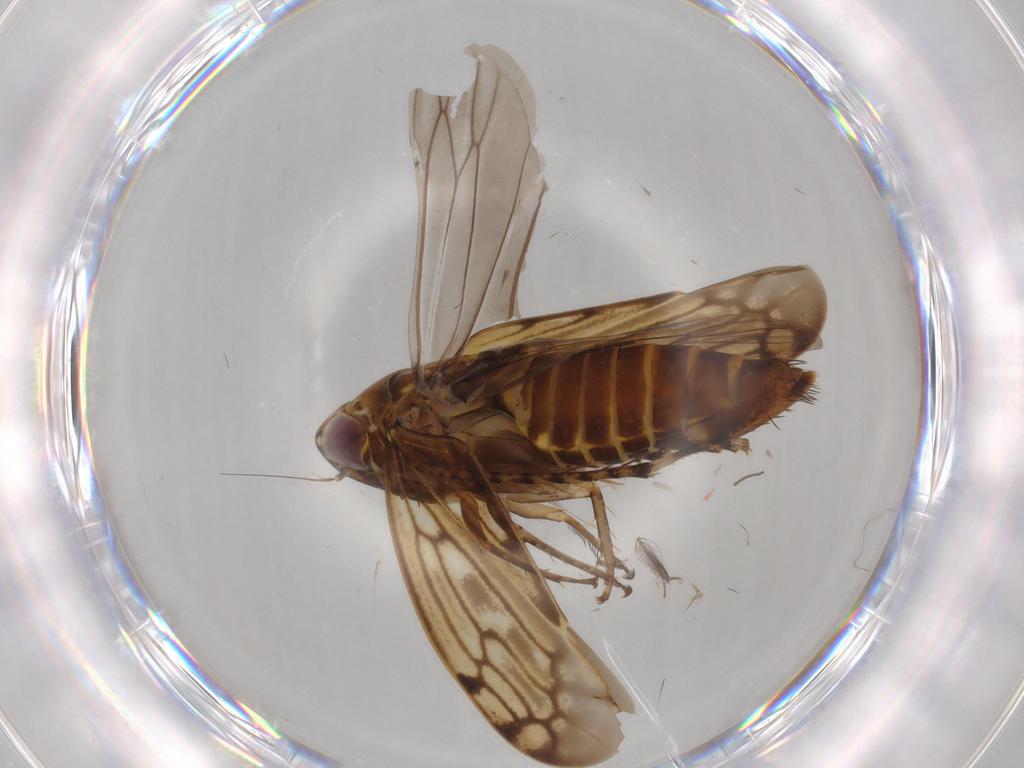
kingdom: Animalia
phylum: Arthropoda
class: Insecta
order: Hemiptera
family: Cicadellidae
